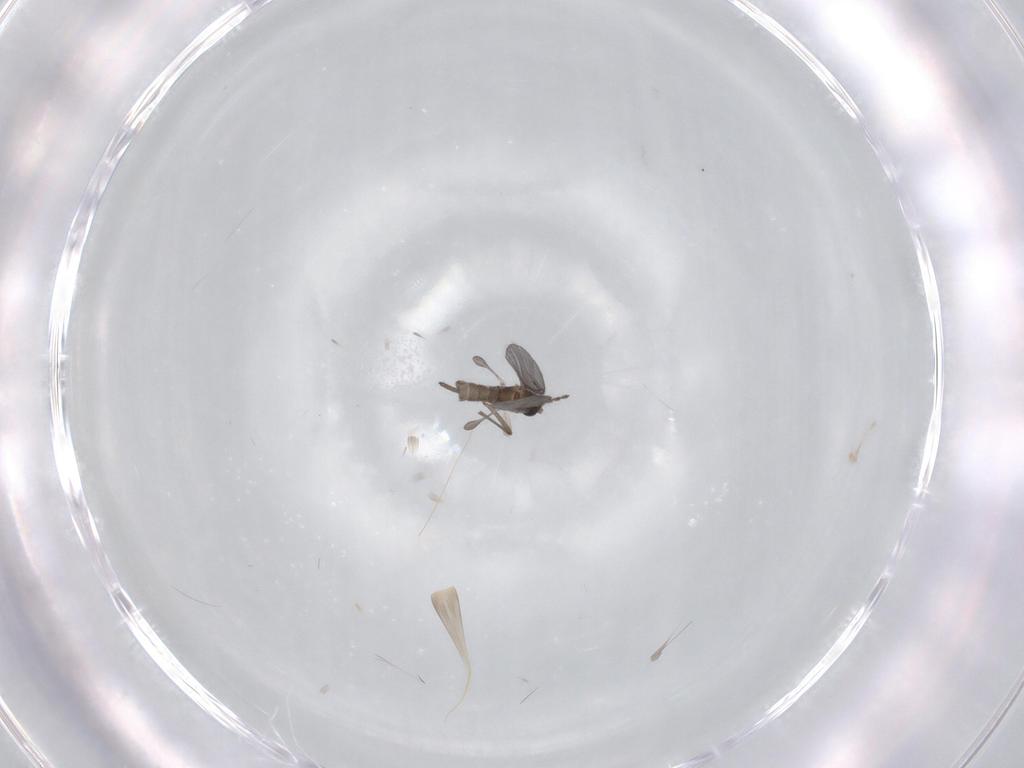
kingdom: Animalia
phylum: Arthropoda
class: Insecta
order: Diptera
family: Sciaridae
